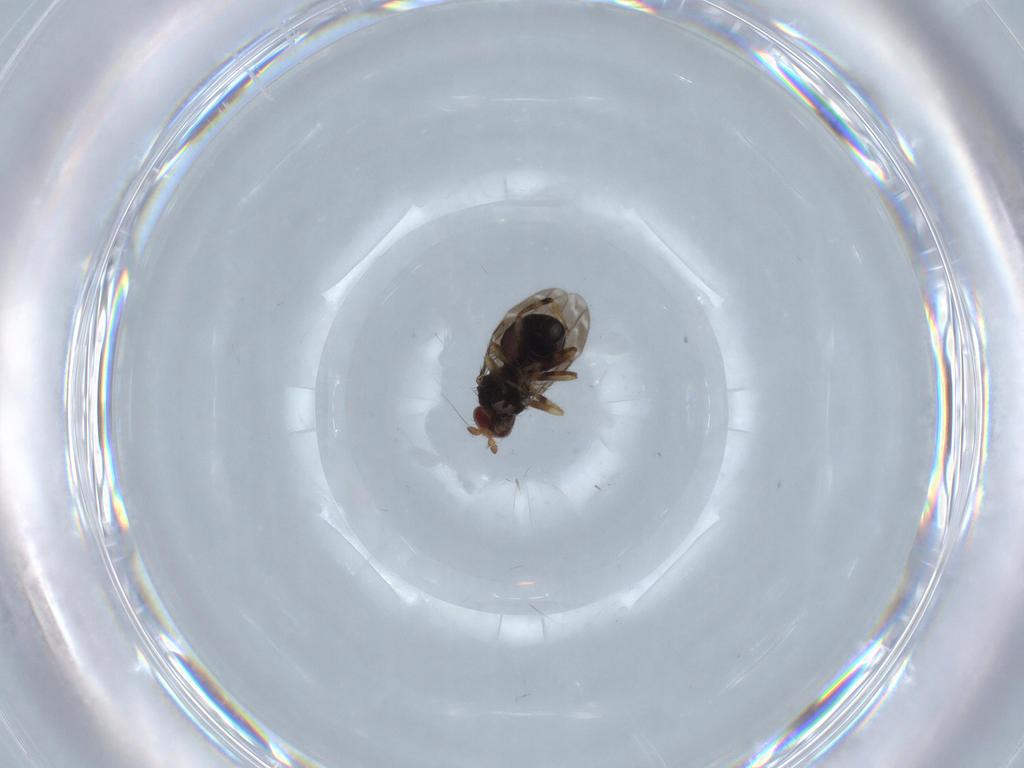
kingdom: Animalia
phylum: Arthropoda
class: Insecta
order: Diptera
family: Sphaeroceridae
